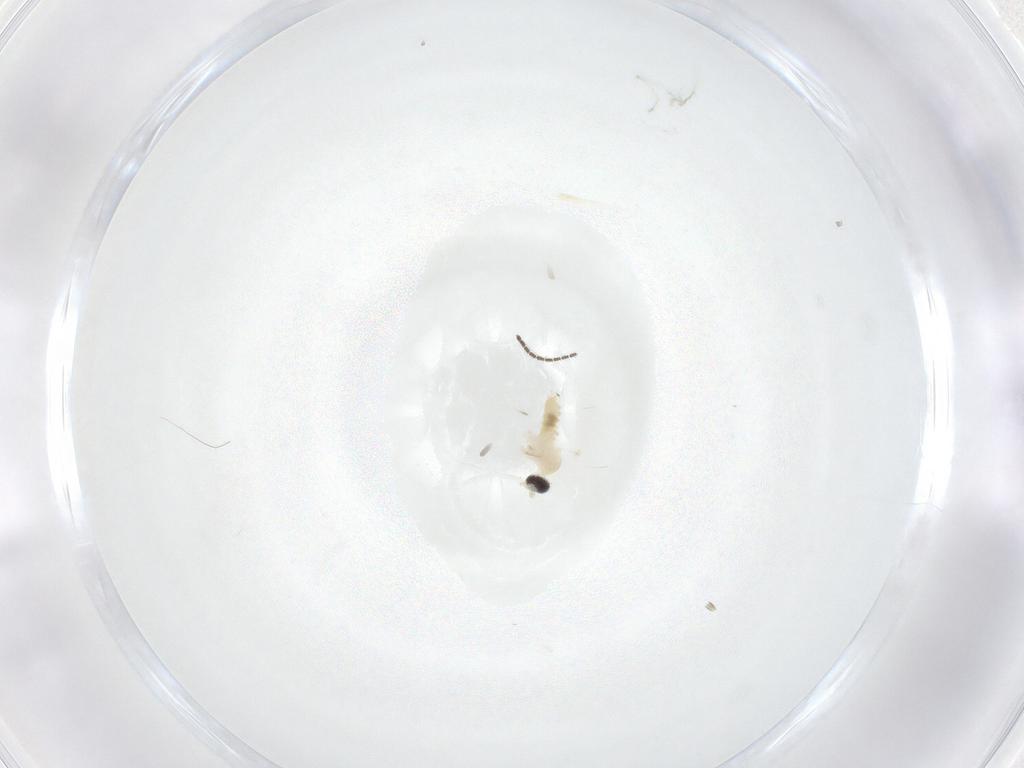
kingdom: Animalia
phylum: Arthropoda
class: Insecta
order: Diptera
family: Cecidomyiidae
